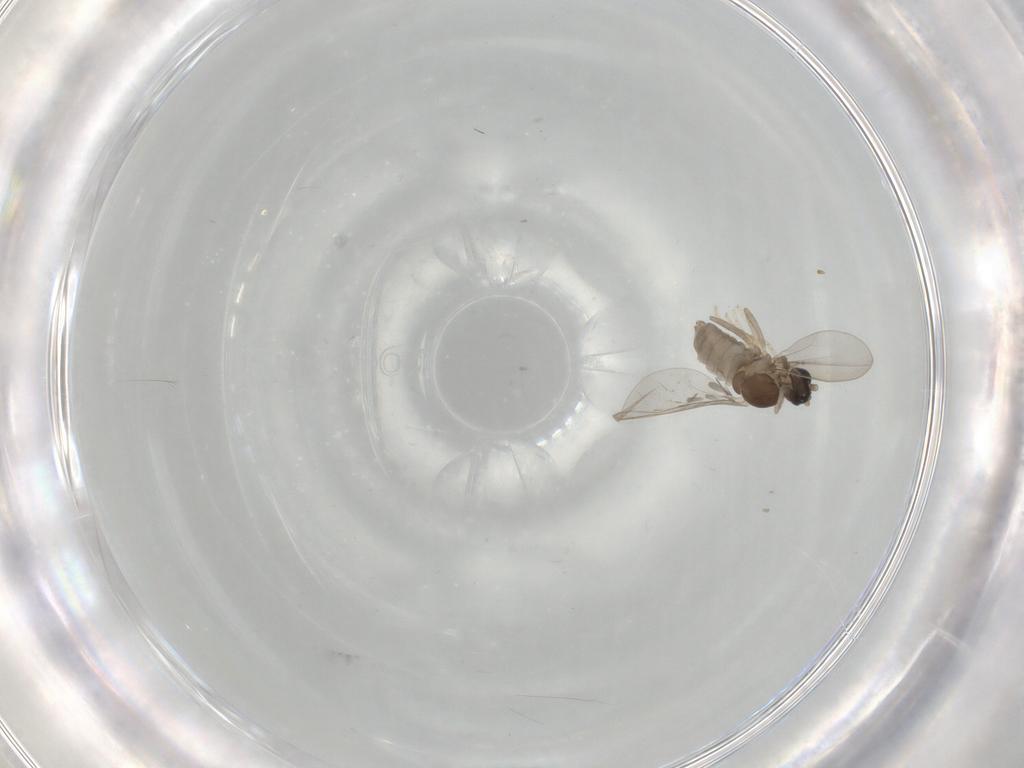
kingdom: Animalia
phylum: Arthropoda
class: Insecta
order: Diptera
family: Cecidomyiidae
